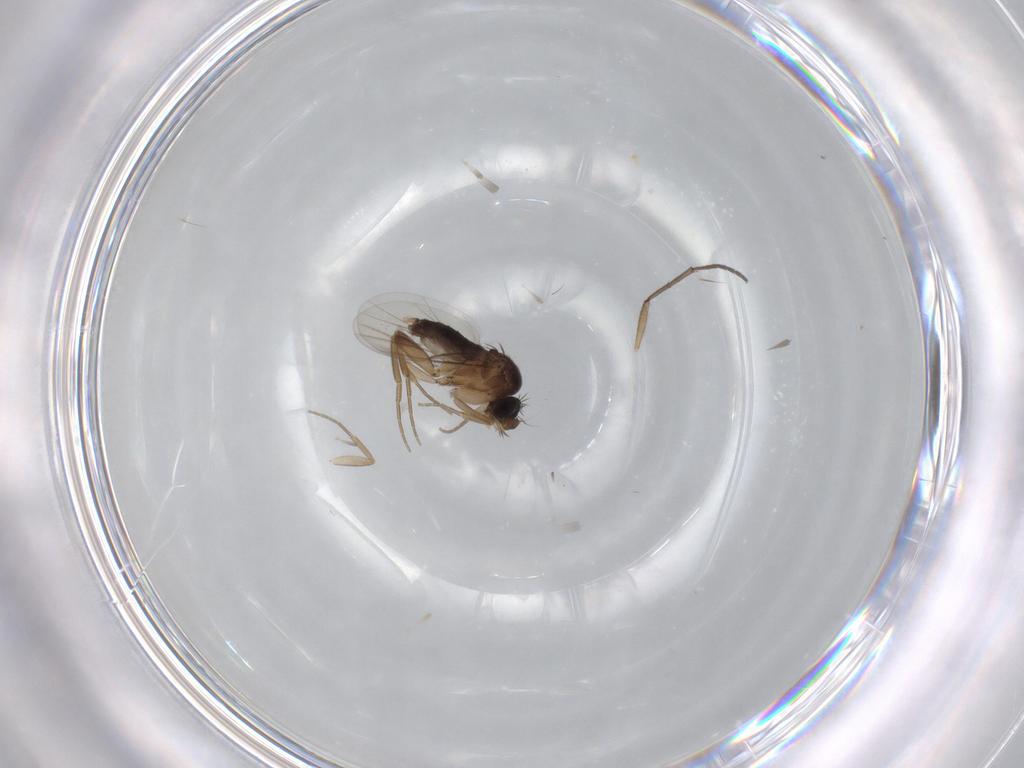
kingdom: Animalia
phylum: Arthropoda
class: Insecta
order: Diptera
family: Phoridae
